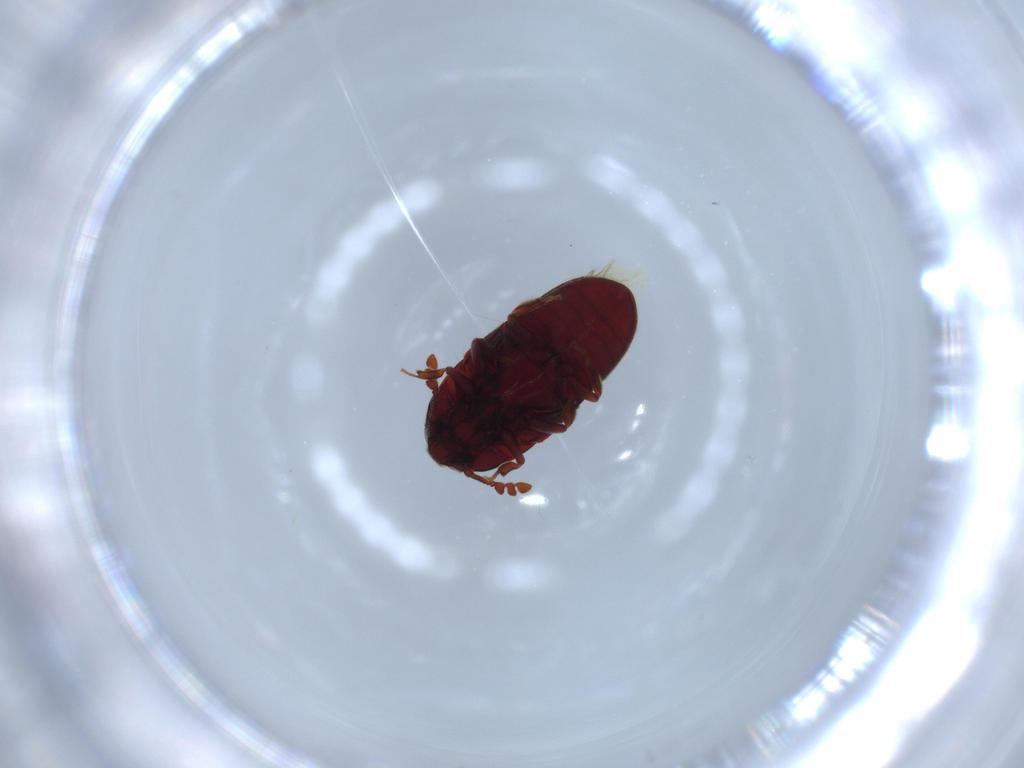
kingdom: Animalia
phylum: Arthropoda
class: Insecta
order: Coleoptera
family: Throscidae
